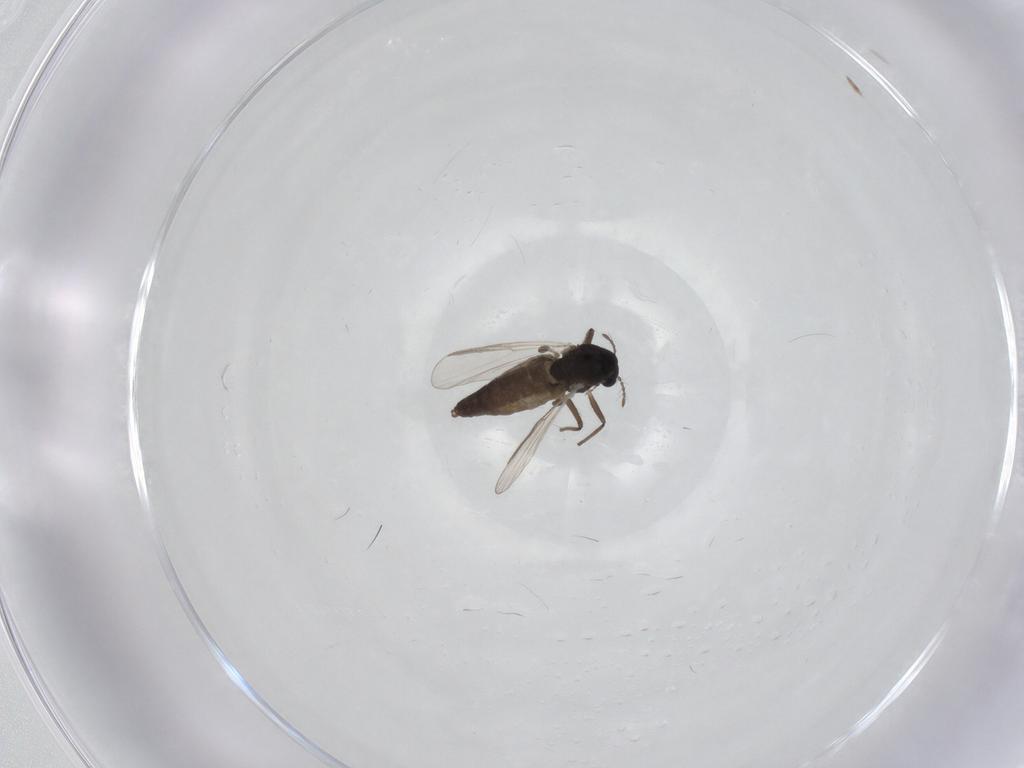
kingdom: Animalia
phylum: Arthropoda
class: Insecta
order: Diptera
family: Chironomidae
